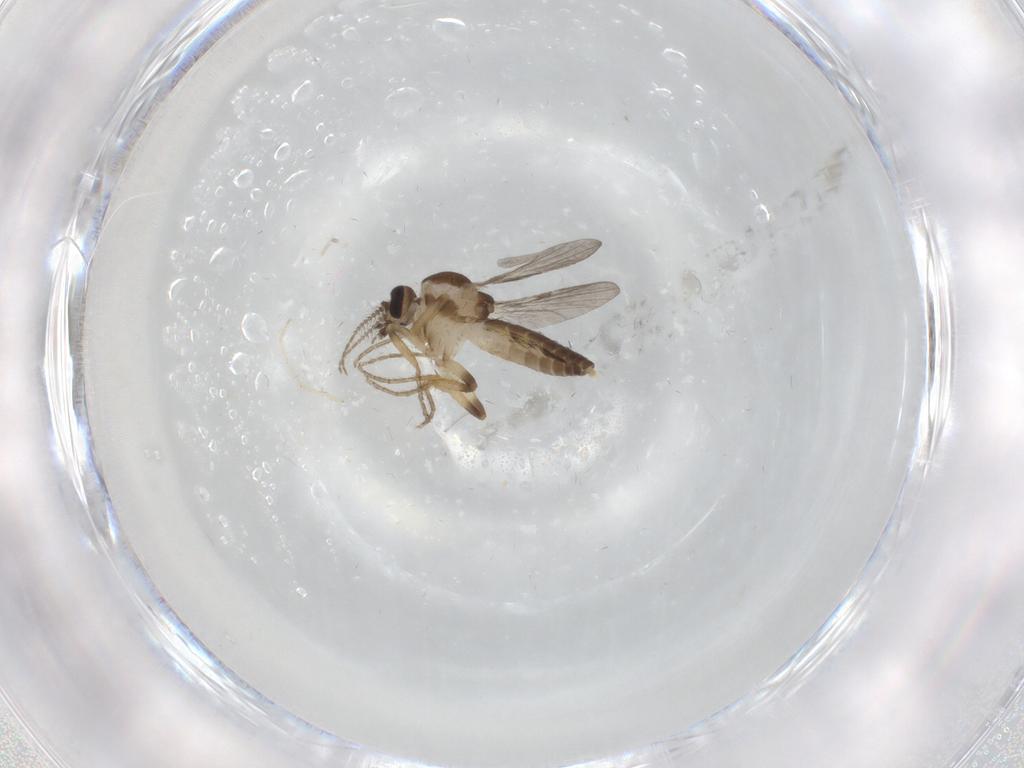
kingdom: Animalia
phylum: Arthropoda
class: Insecta
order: Diptera
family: Ceratopogonidae
